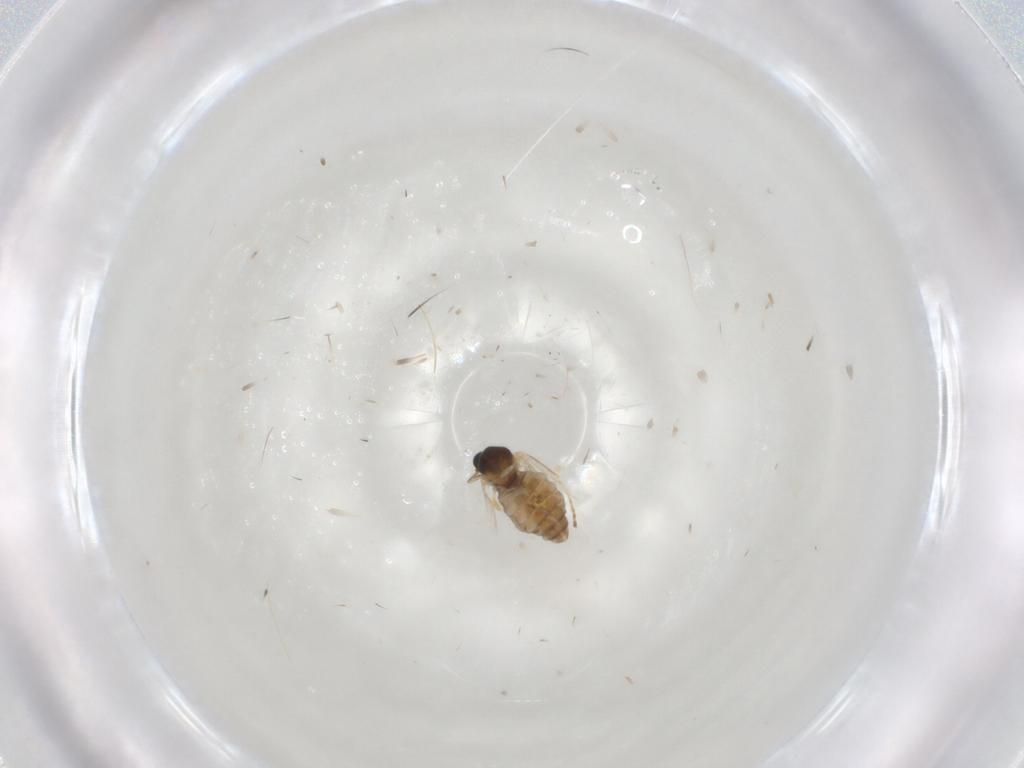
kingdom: Animalia
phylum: Arthropoda
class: Insecta
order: Diptera
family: Cecidomyiidae
